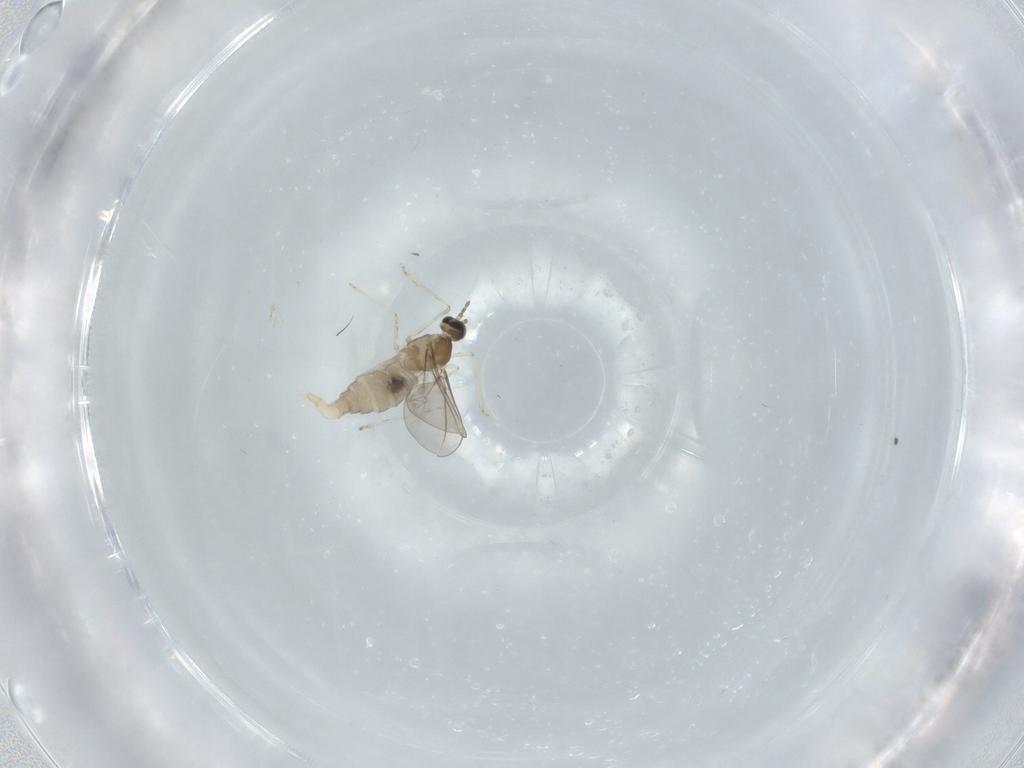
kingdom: Animalia
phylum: Arthropoda
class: Insecta
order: Diptera
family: Cecidomyiidae
